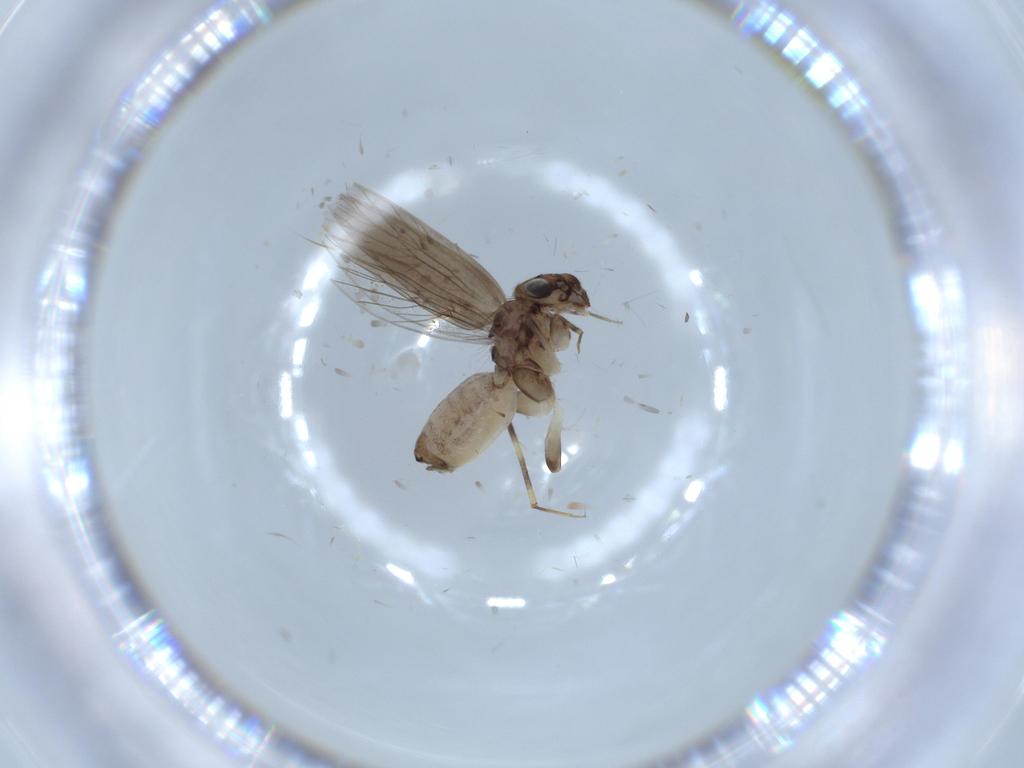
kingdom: Animalia
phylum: Arthropoda
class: Insecta
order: Psocodea
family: Lepidopsocidae
